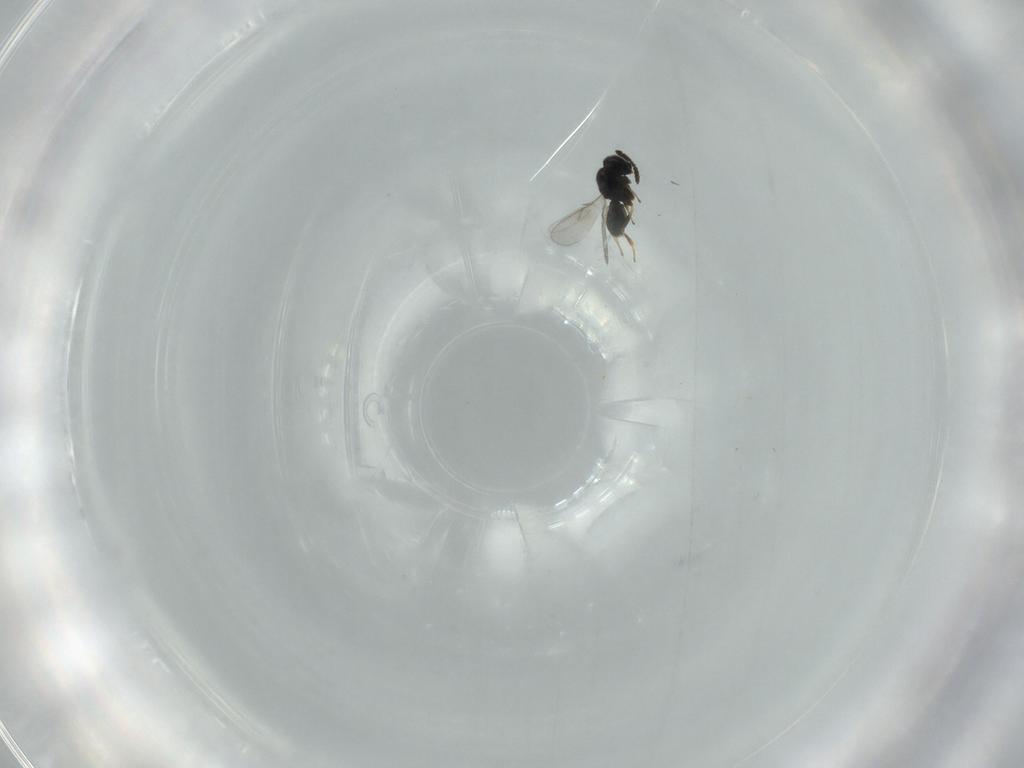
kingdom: Animalia
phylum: Arthropoda
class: Insecta
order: Hymenoptera
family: Scelionidae
